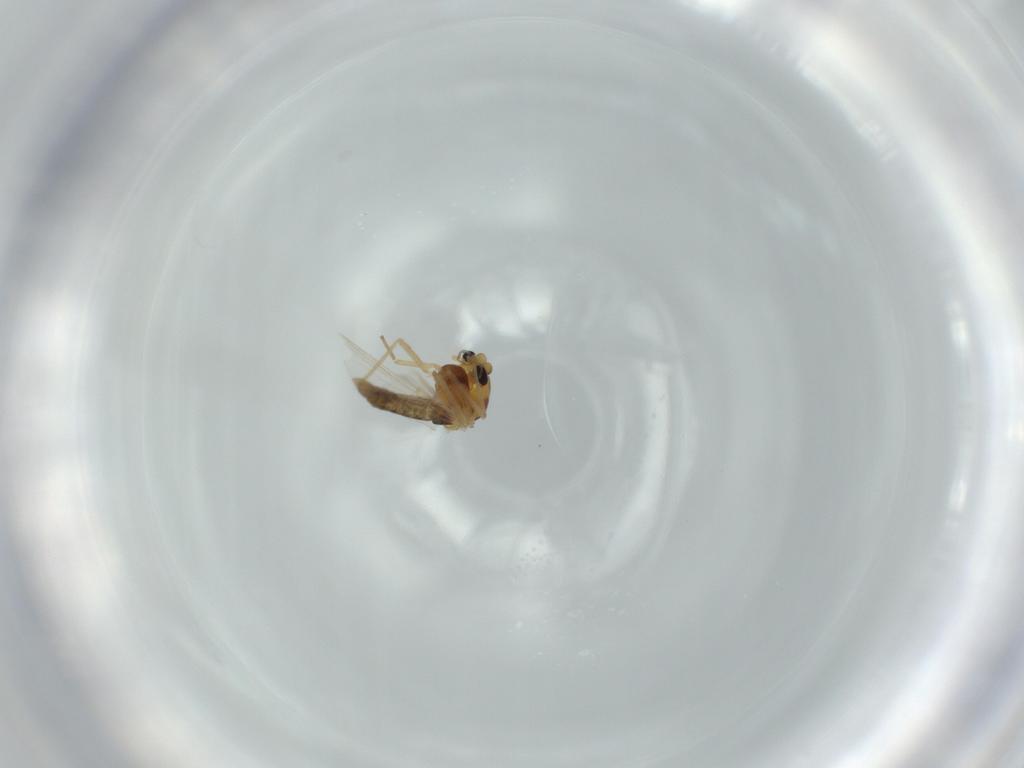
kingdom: Animalia
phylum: Arthropoda
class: Insecta
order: Diptera
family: Chironomidae
